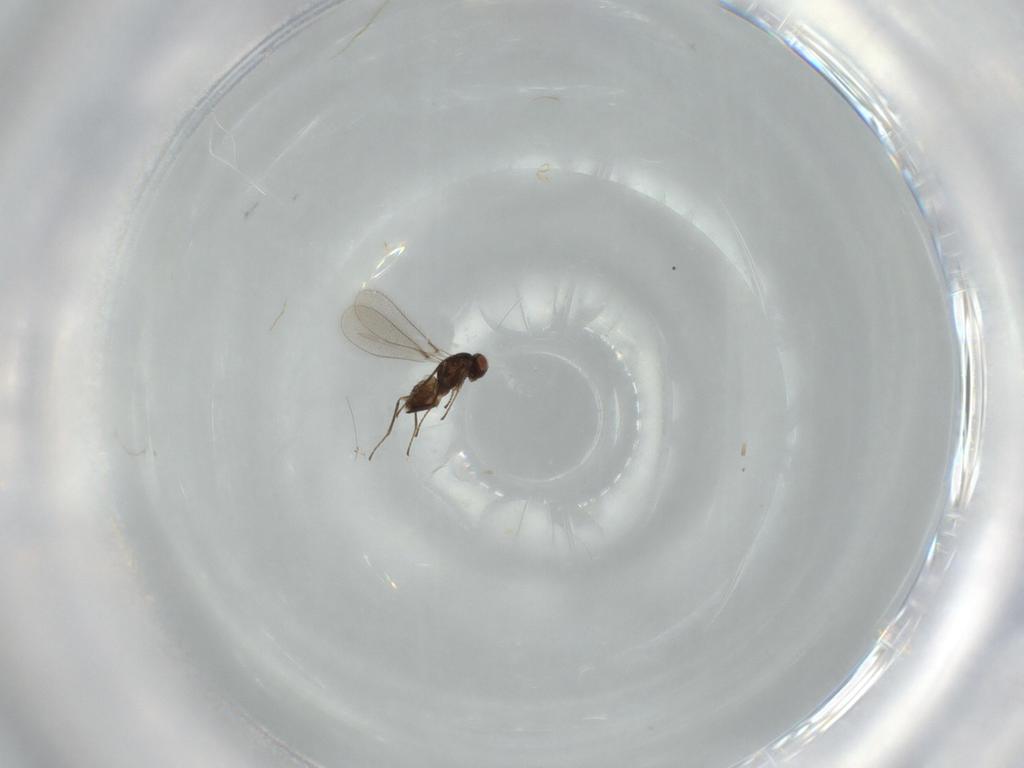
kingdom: Animalia
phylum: Arthropoda
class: Insecta
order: Hymenoptera
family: Mymaridae
